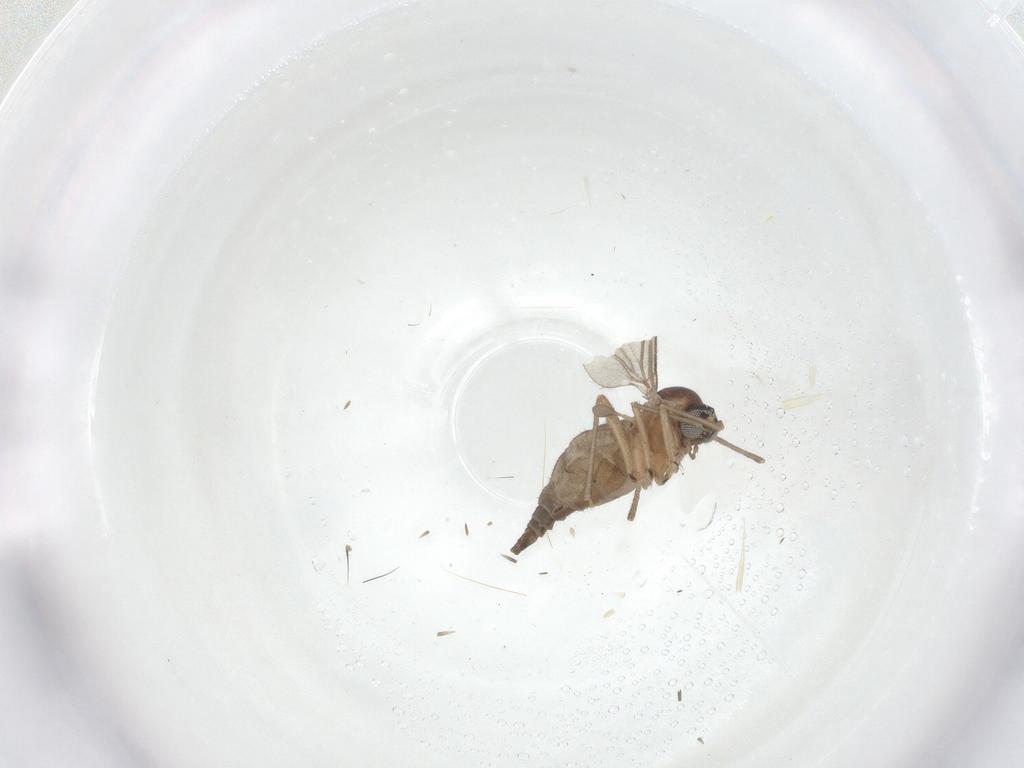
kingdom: Animalia
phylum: Arthropoda
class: Insecta
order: Diptera
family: Sciaridae
